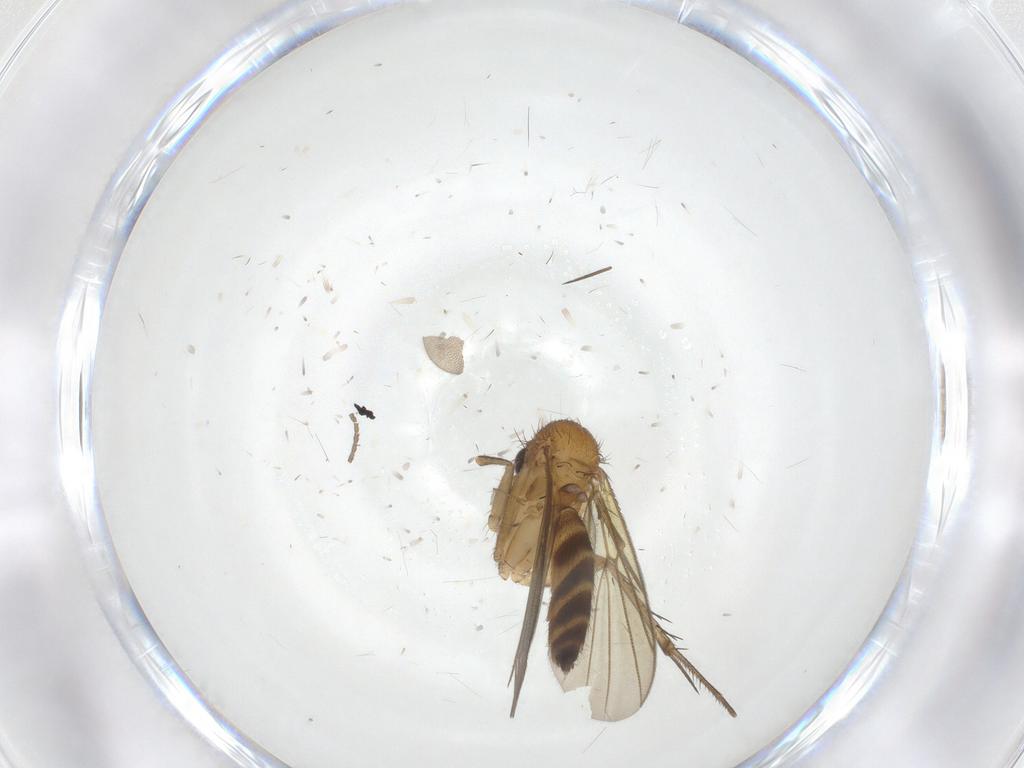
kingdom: Animalia
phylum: Arthropoda
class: Insecta
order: Diptera
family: Mycetophilidae
